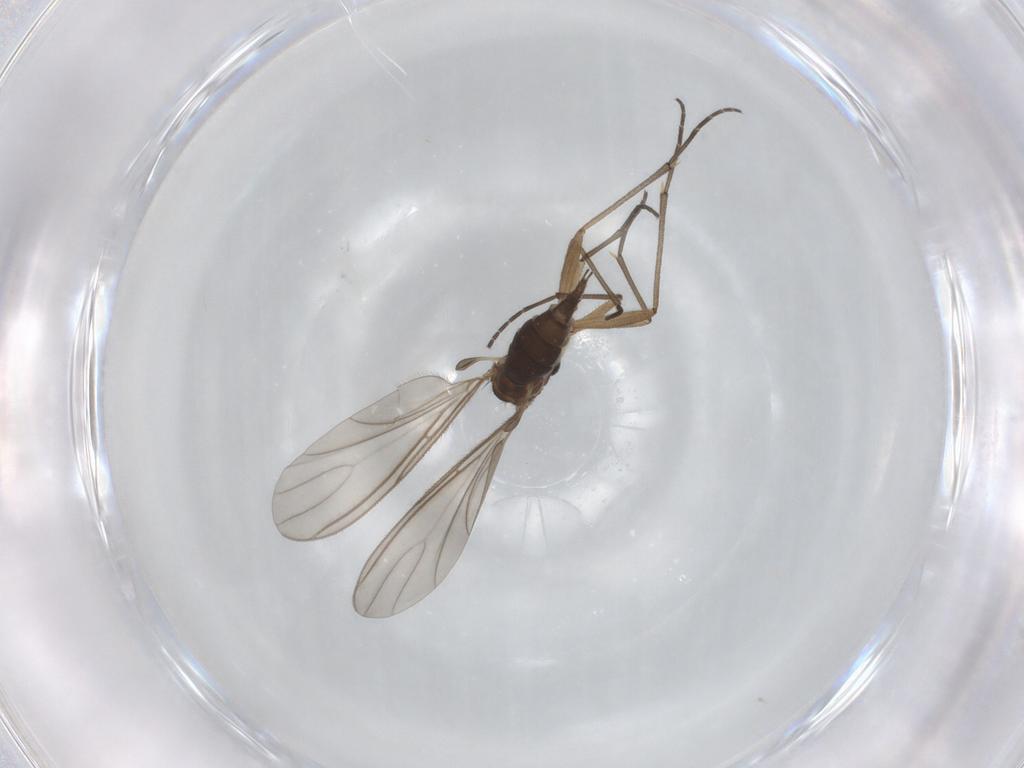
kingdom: Animalia
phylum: Arthropoda
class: Insecta
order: Diptera
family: Sciaridae
